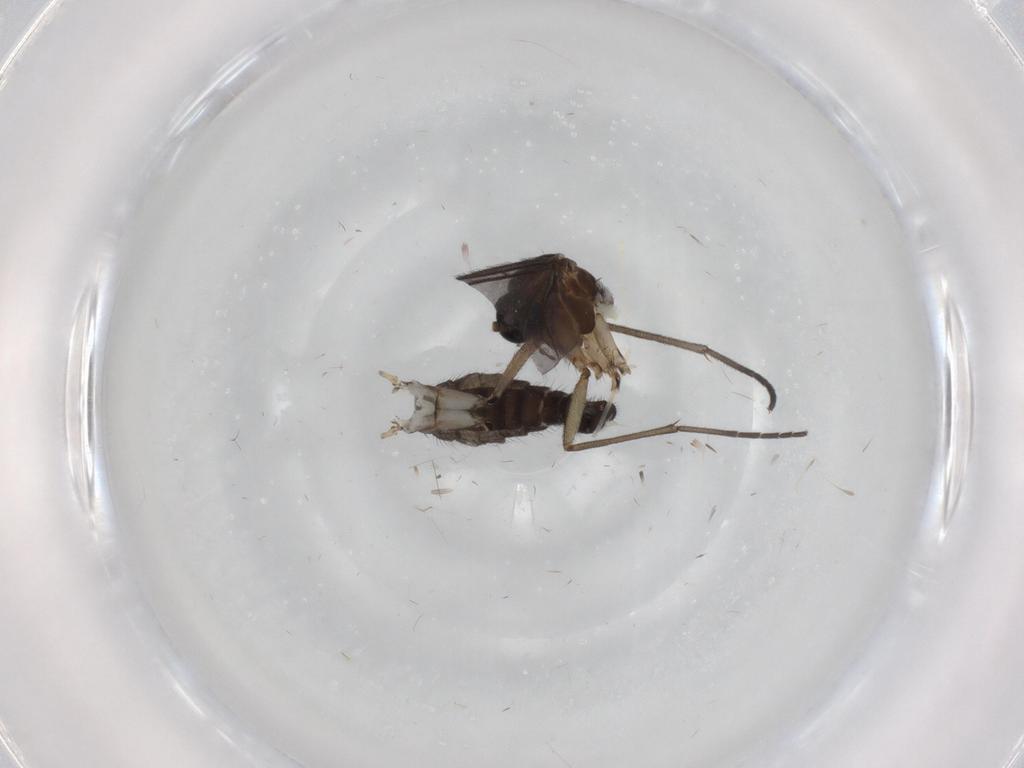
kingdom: Animalia
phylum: Arthropoda
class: Insecta
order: Diptera
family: Sciaridae
